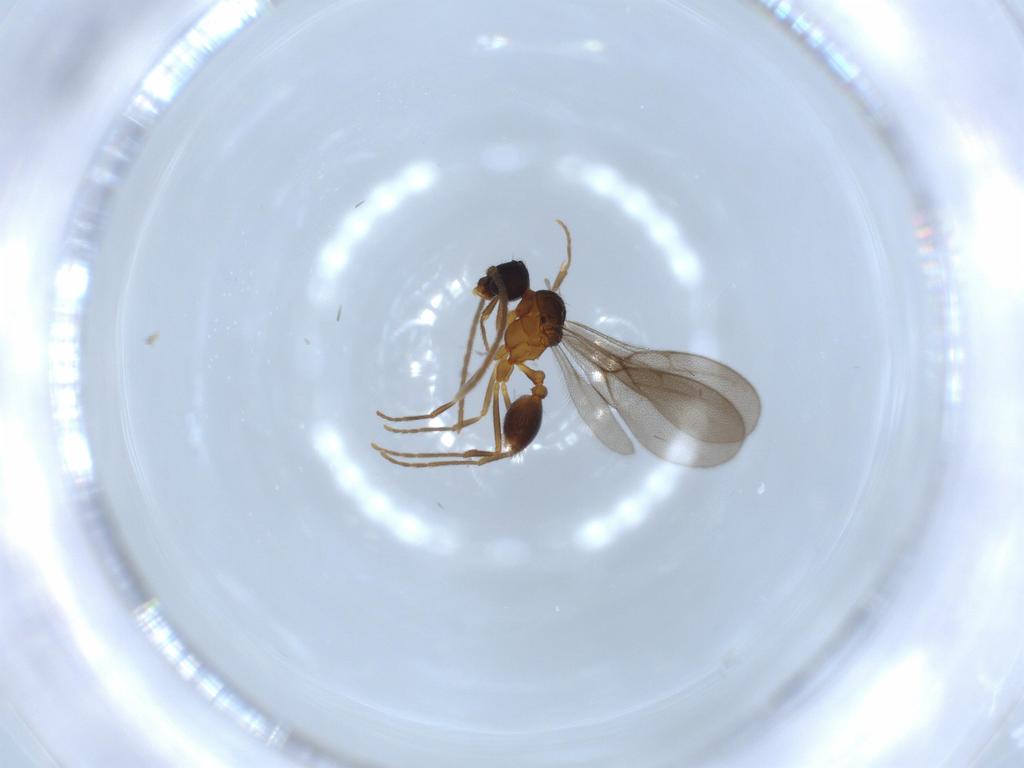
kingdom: Animalia
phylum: Arthropoda
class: Insecta
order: Hymenoptera
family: Formicidae
